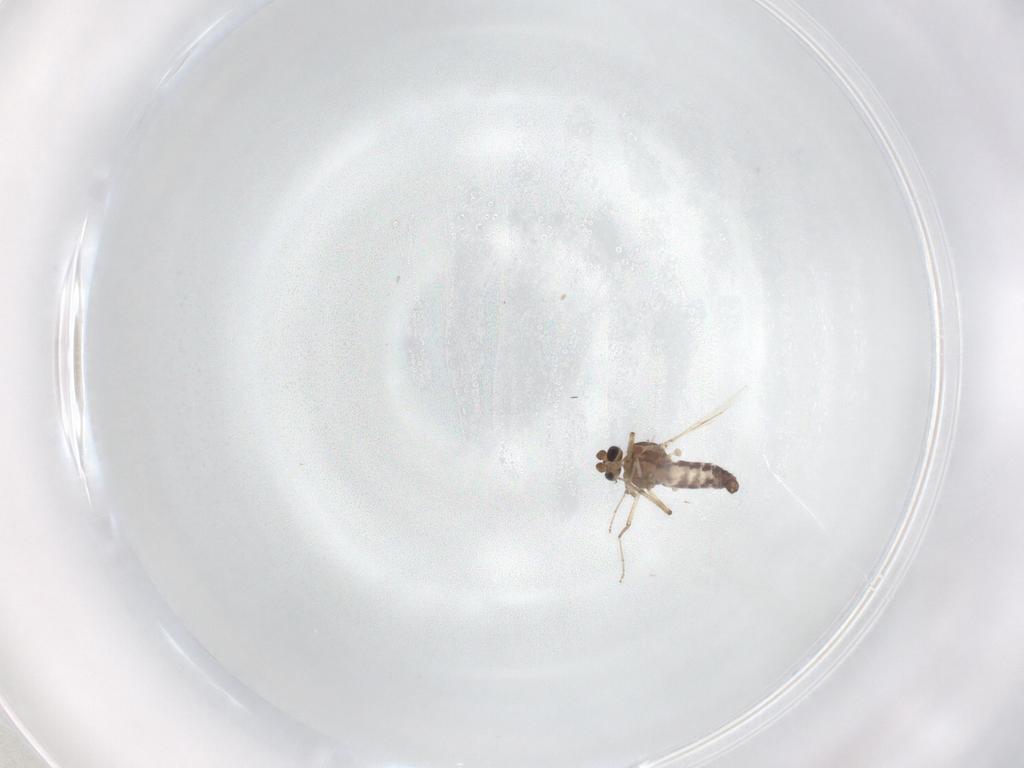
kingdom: Animalia
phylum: Arthropoda
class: Insecta
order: Diptera
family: Ceratopogonidae
